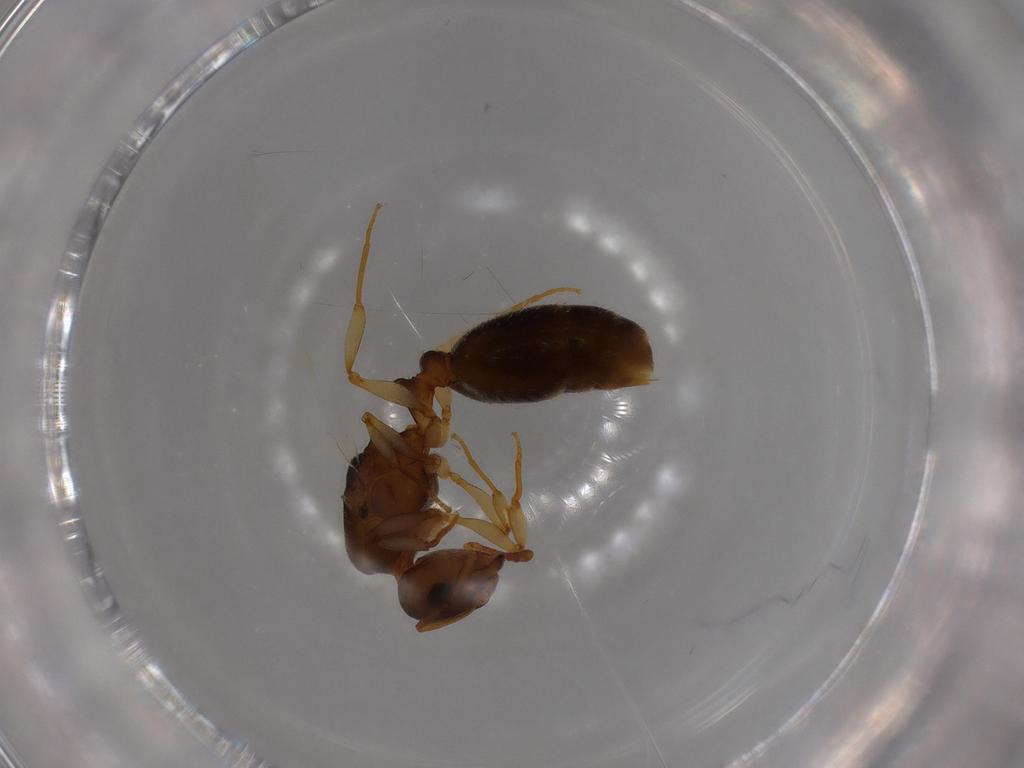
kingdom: Animalia
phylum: Arthropoda
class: Insecta
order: Hymenoptera
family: Formicidae
